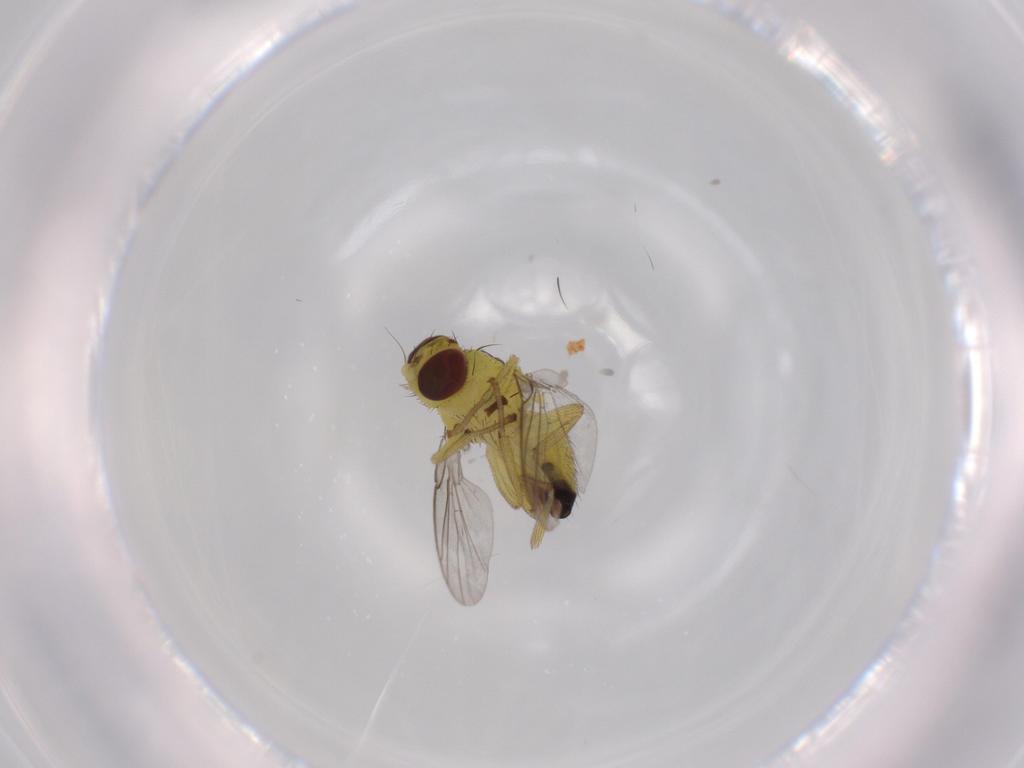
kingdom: Animalia
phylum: Arthropoda
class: Insecta
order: Diptera
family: Agromyzidae
